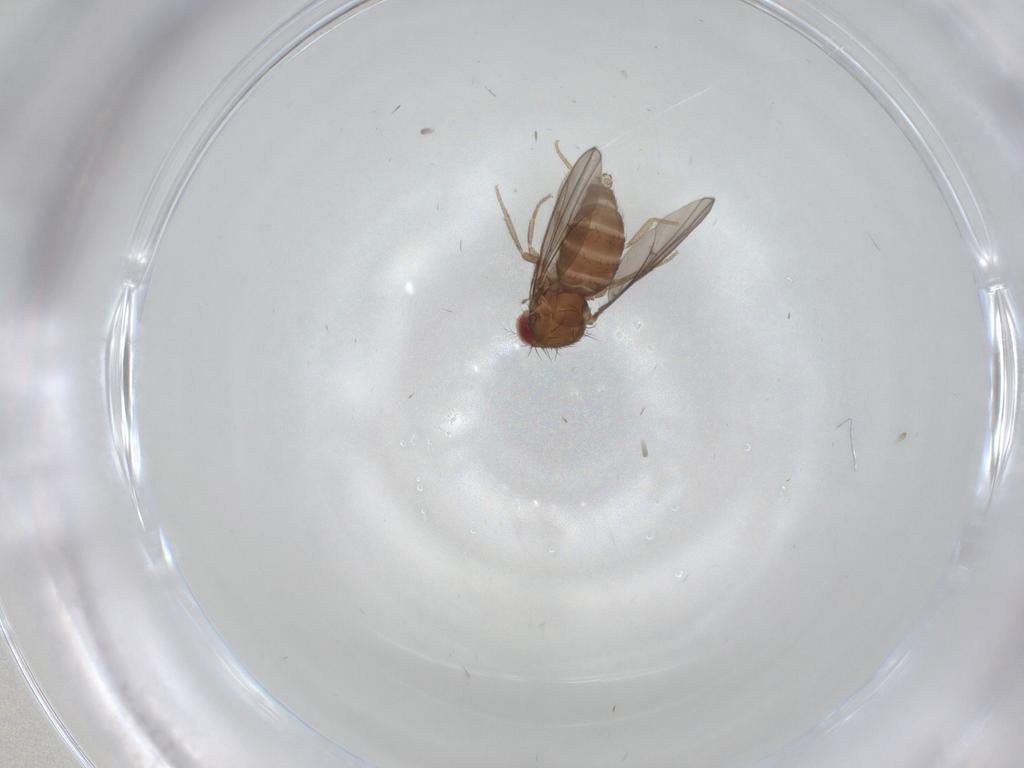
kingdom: Animalia
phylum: Arthropoda
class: Insecta
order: Diptera
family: Drosophilidae
